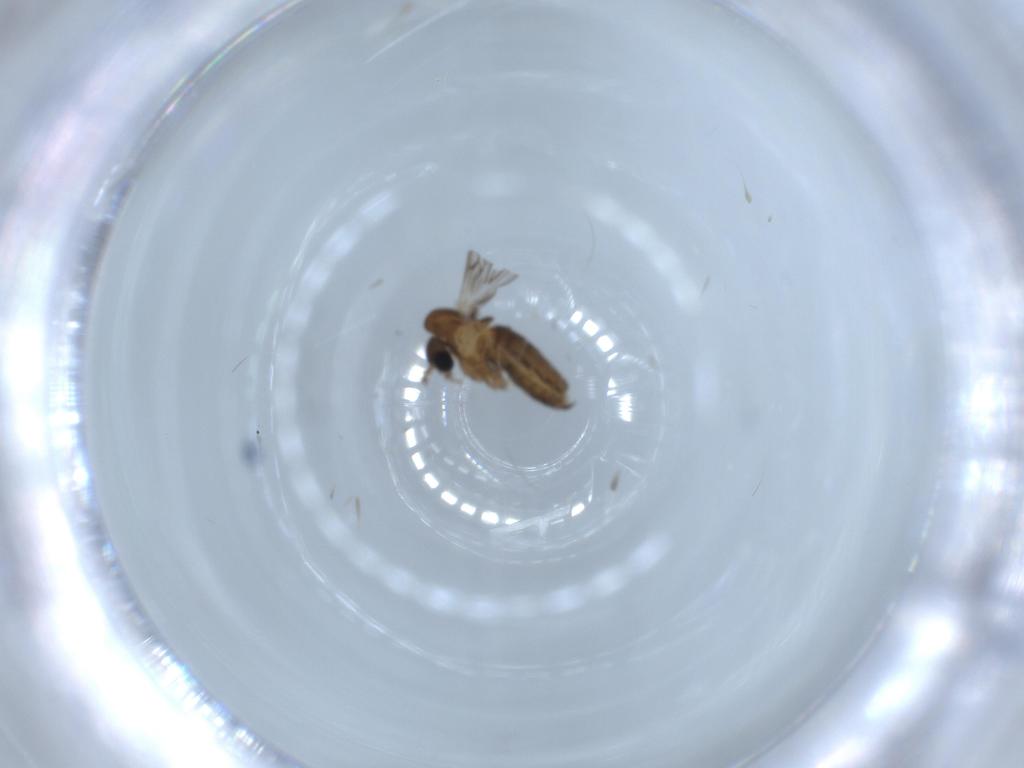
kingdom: Animalia
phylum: Arthropoda
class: Insecta
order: Diptera
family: Psychodidae
